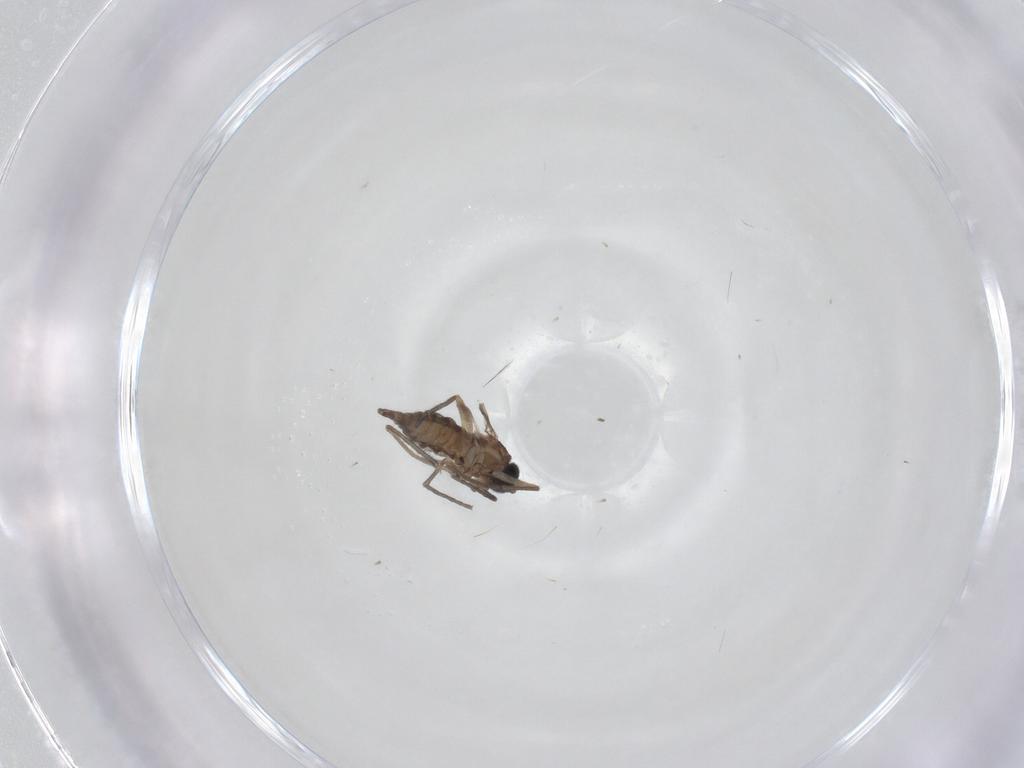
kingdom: Animalia
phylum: Arthropoda
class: Insecta
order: Diptera
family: Sciaridae
